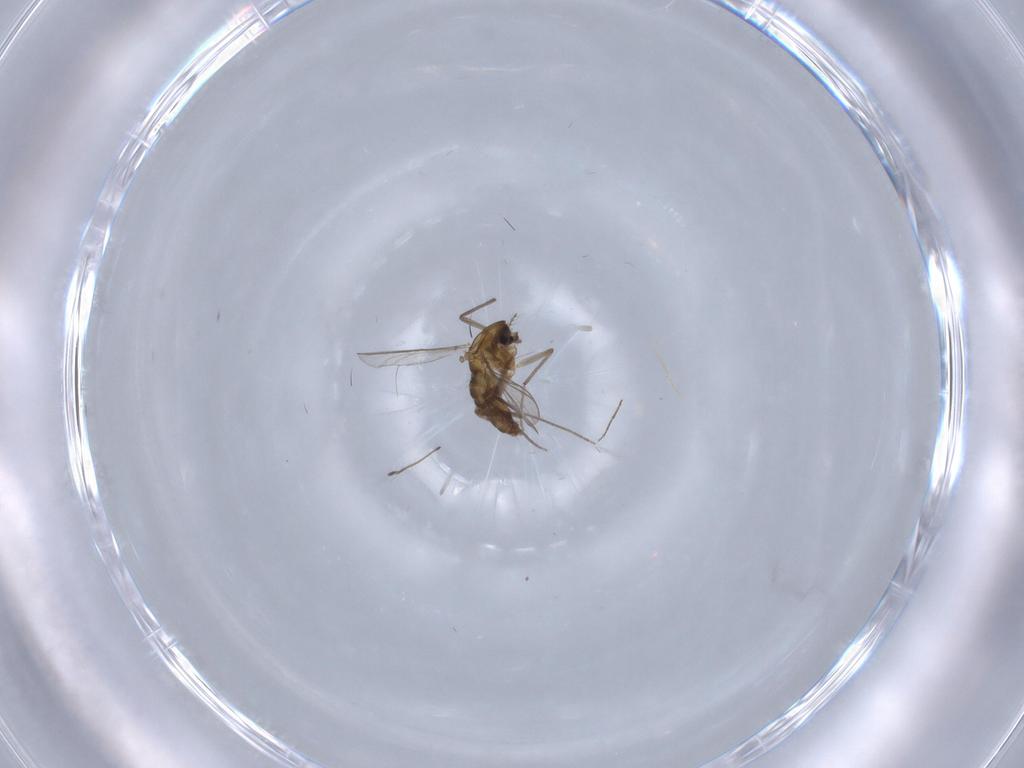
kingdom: Animalia
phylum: Arthropoda
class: Insecta
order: Diptera
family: Chironomidae
